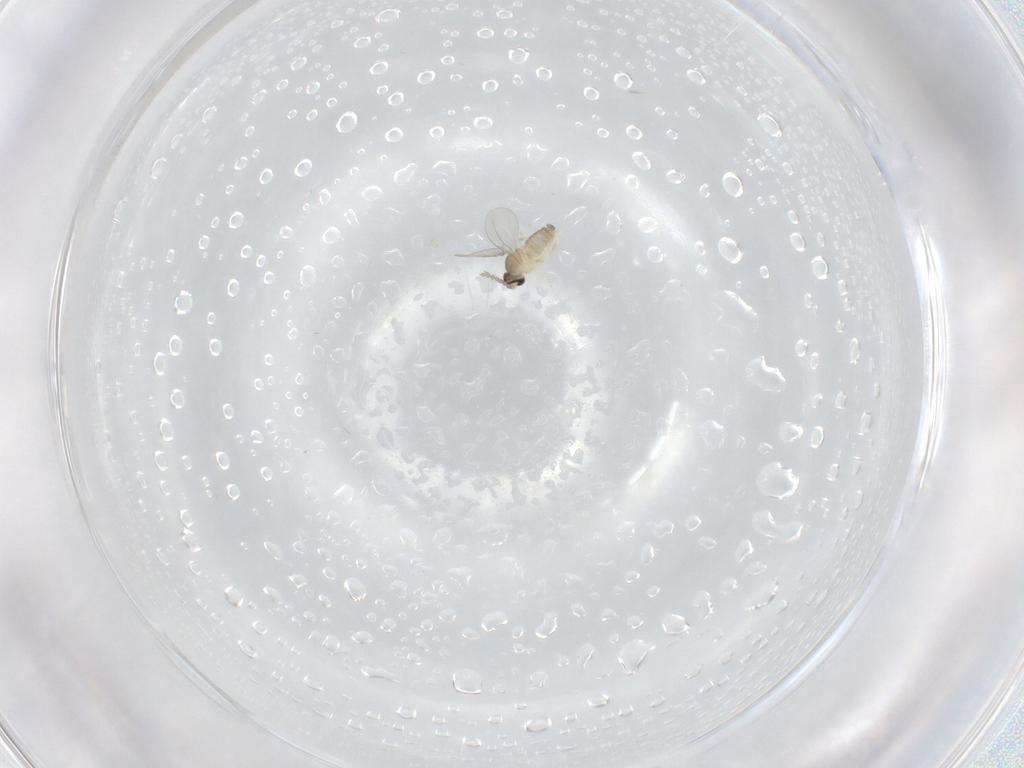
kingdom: Animalia
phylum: Arthropoda
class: Insecta
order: Diptera
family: Cecidomyiidae
